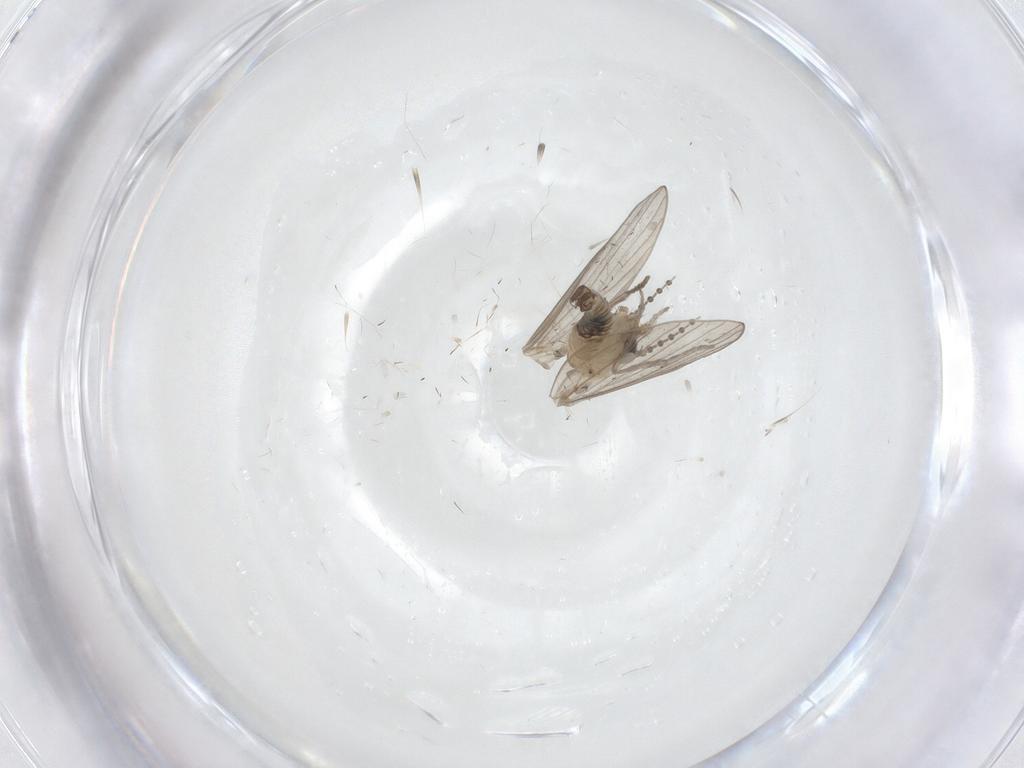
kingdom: Animalia
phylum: Arthropoda
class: Insecta
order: Diptera
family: Psychodidae
